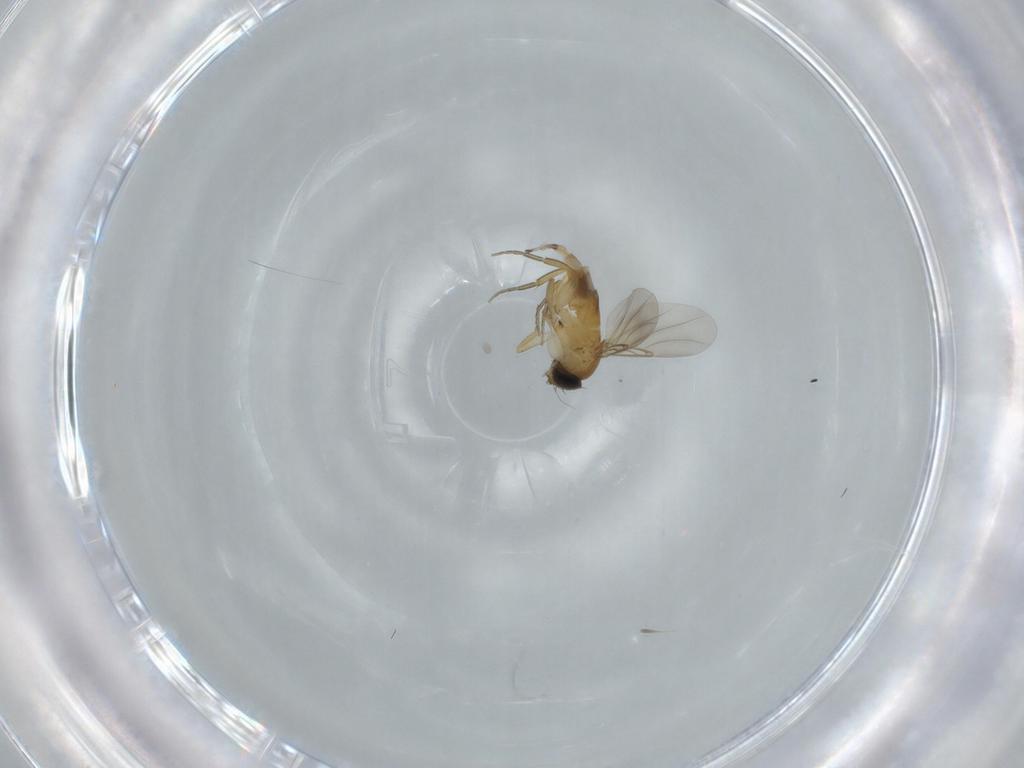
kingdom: Animalia
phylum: Arthropoda
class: Insecta
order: Diptera
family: Phoridae
